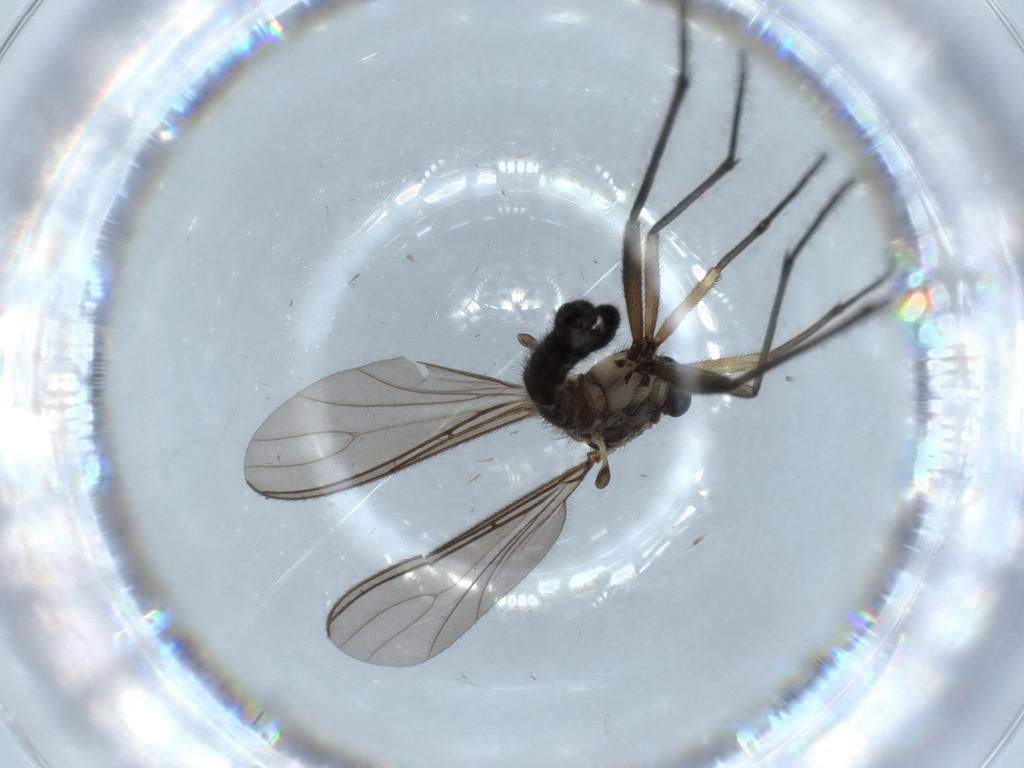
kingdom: Animalia
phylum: Arthropoda
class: Insecta
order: Diptera
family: Sciaridae
